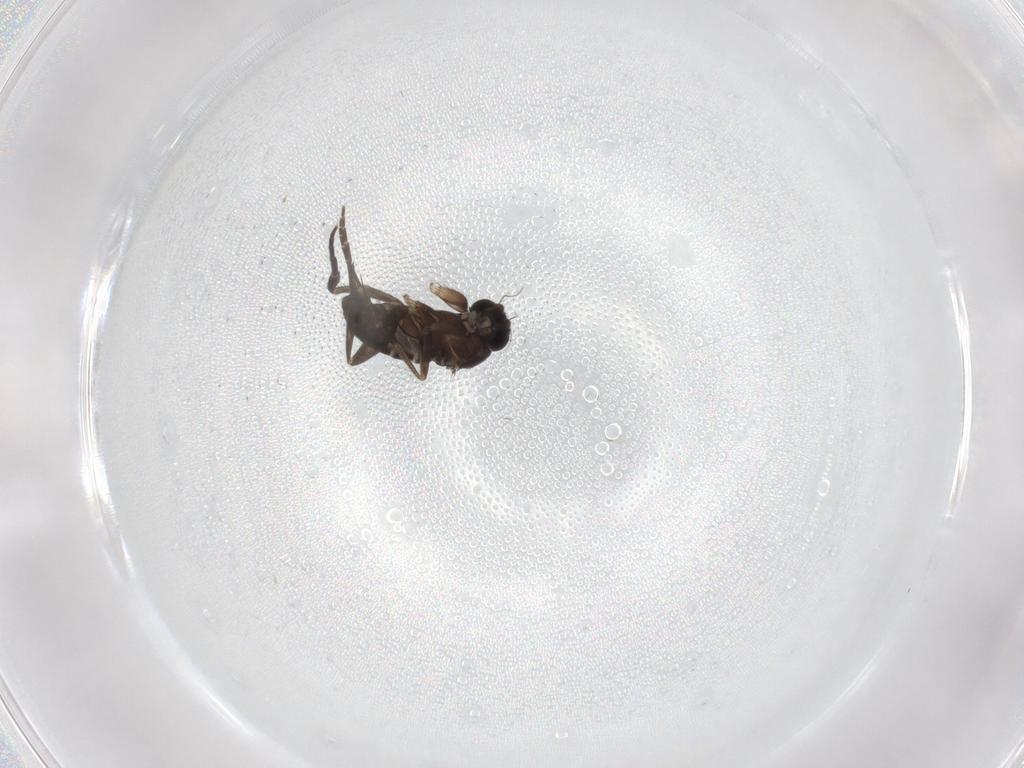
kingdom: Animalia
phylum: Arthropoda
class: Insecta
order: Diptera
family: Phoridae
